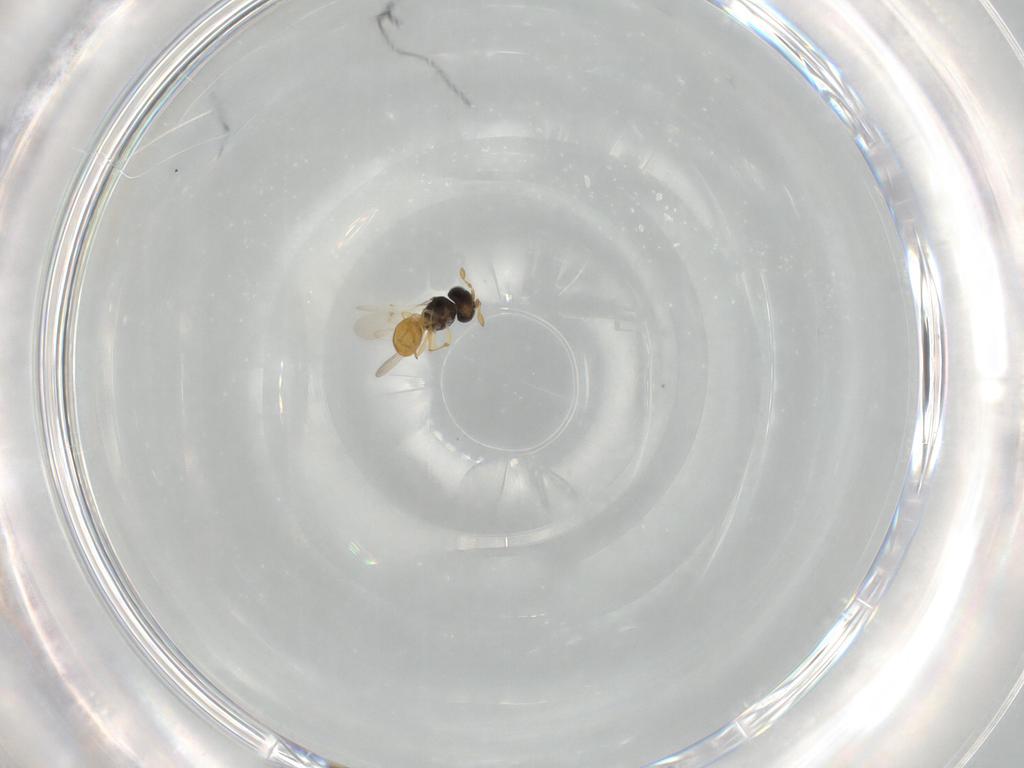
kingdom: Animalia
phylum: Arthropoda
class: Insecta
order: Hymenoptera
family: Scelionidae
